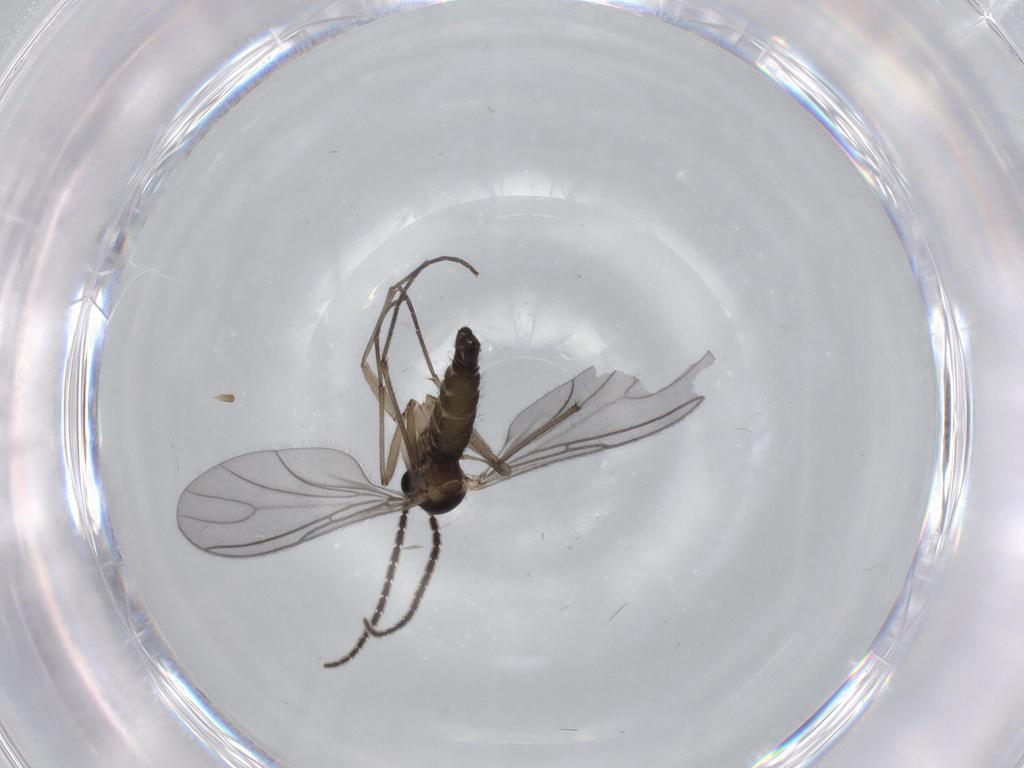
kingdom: Animalia
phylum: Arthropoda
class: Insecta
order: Diptera
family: Sciaridae
